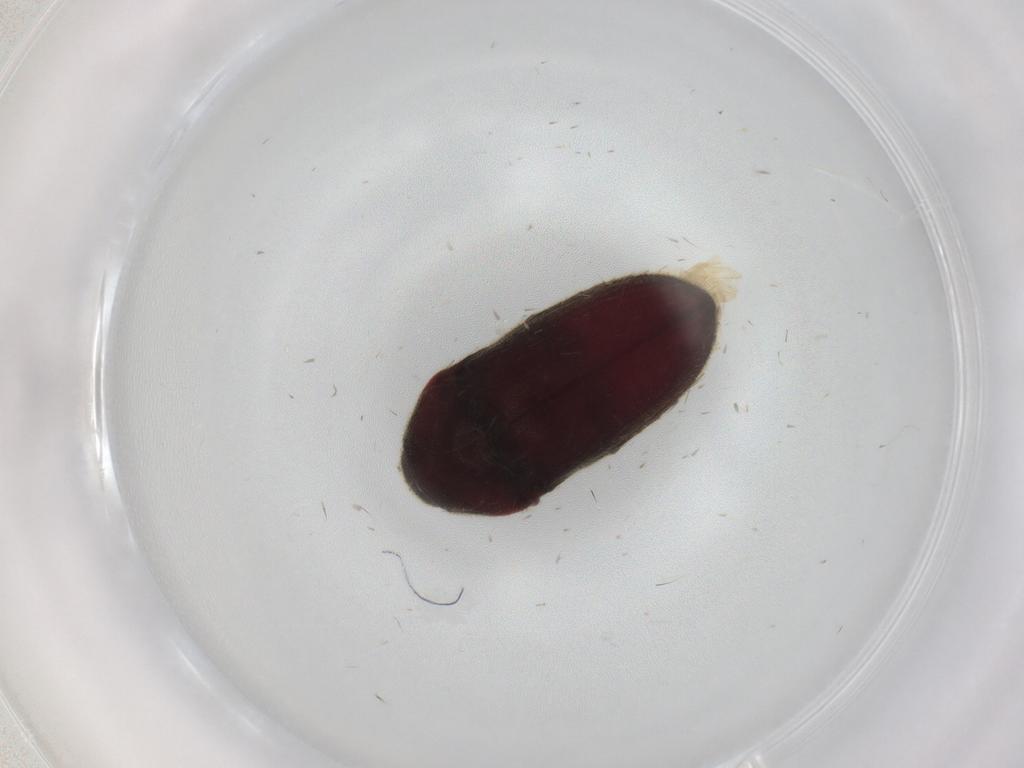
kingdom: Animalia
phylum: Arthropoda
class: Insecta
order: Coleoptera
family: Throscidae
